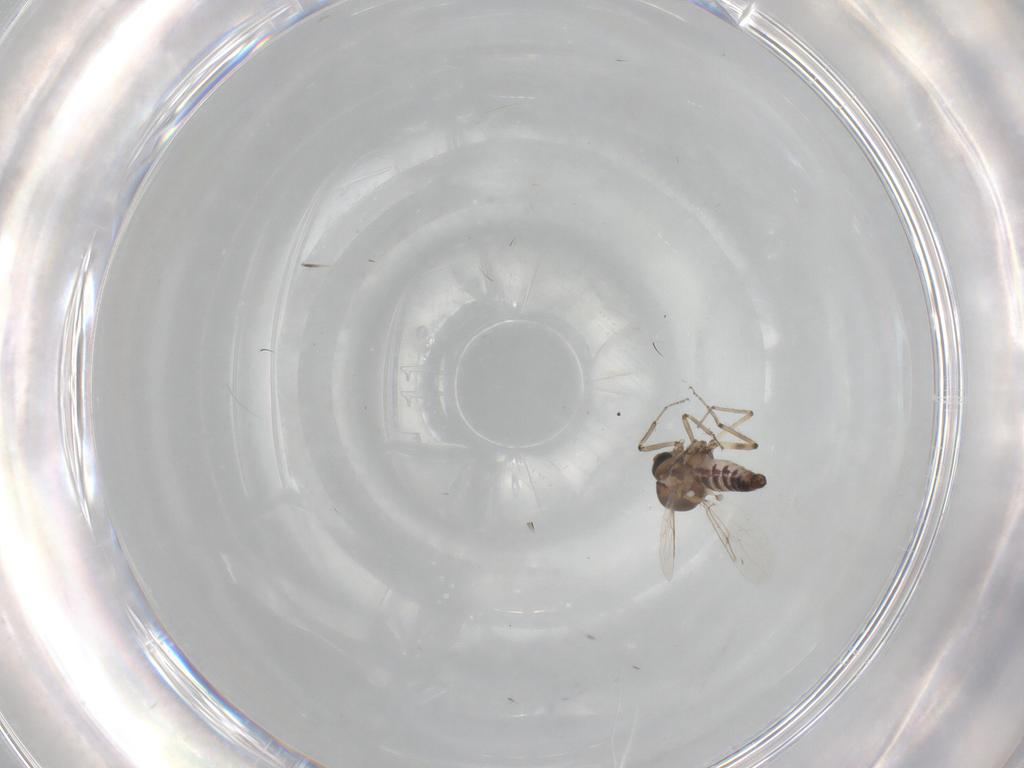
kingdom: Animalia
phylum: Arthropoda
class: Insecta
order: Diptera
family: Ceratopogonidae
